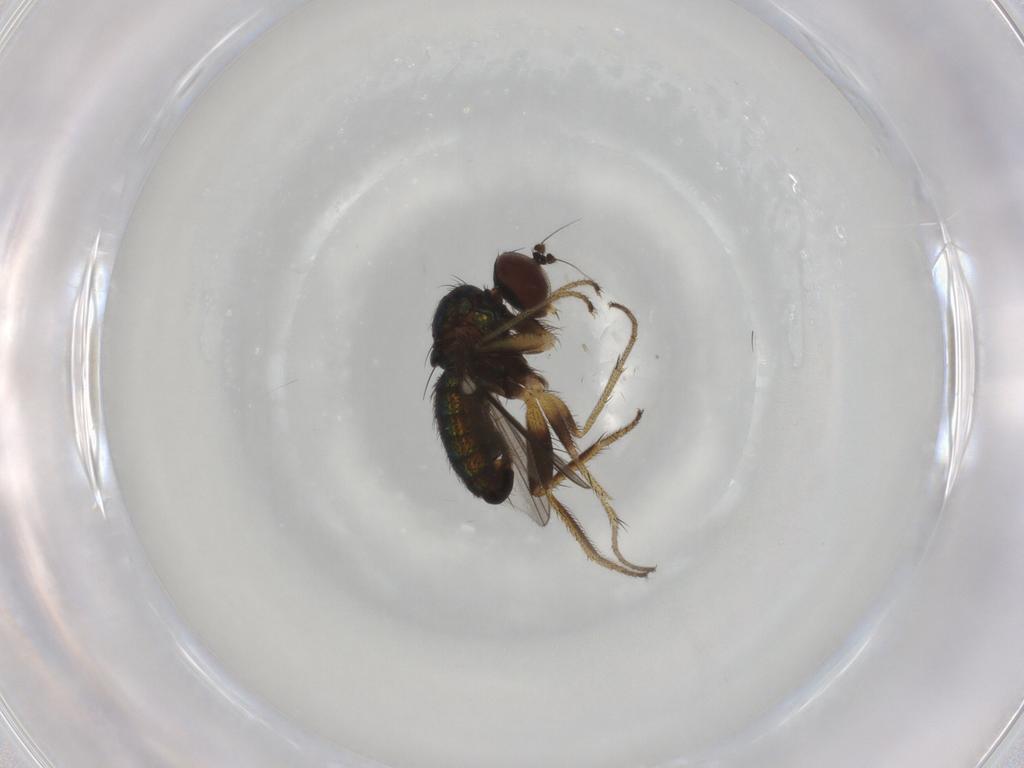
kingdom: Animalia
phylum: Arthropoda
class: Insecta
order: Diptera
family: Dolichopodidae
